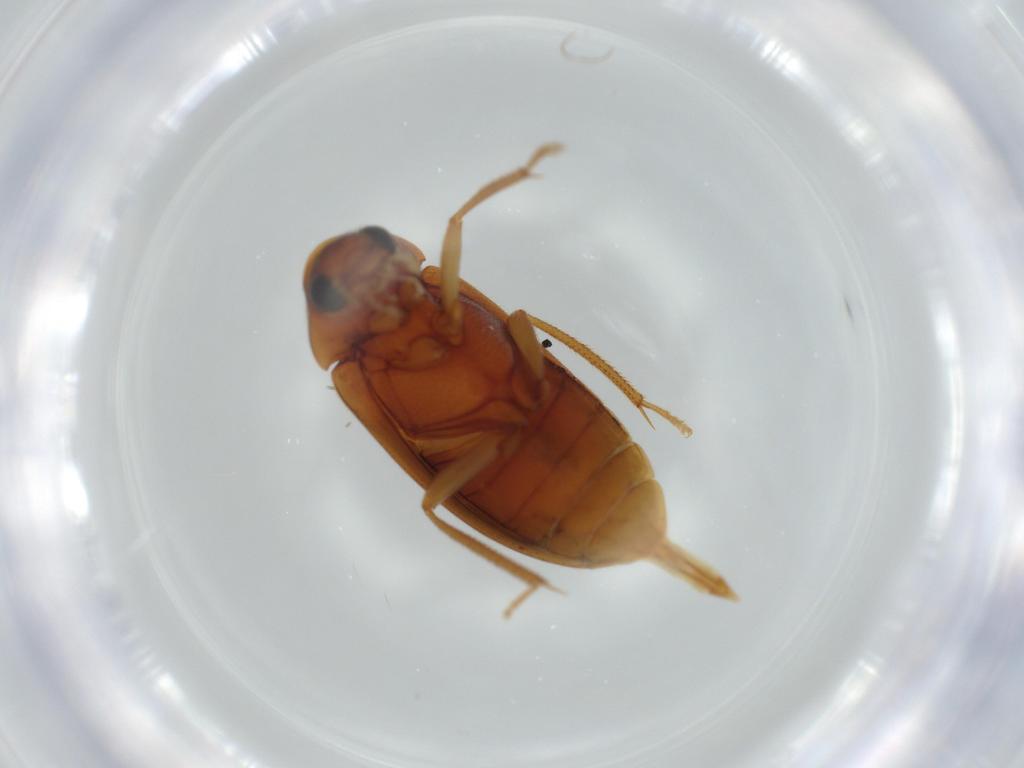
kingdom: Animalia
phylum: Arthropoda
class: Insecta
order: Coleoptera
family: Ptilodactylidae
